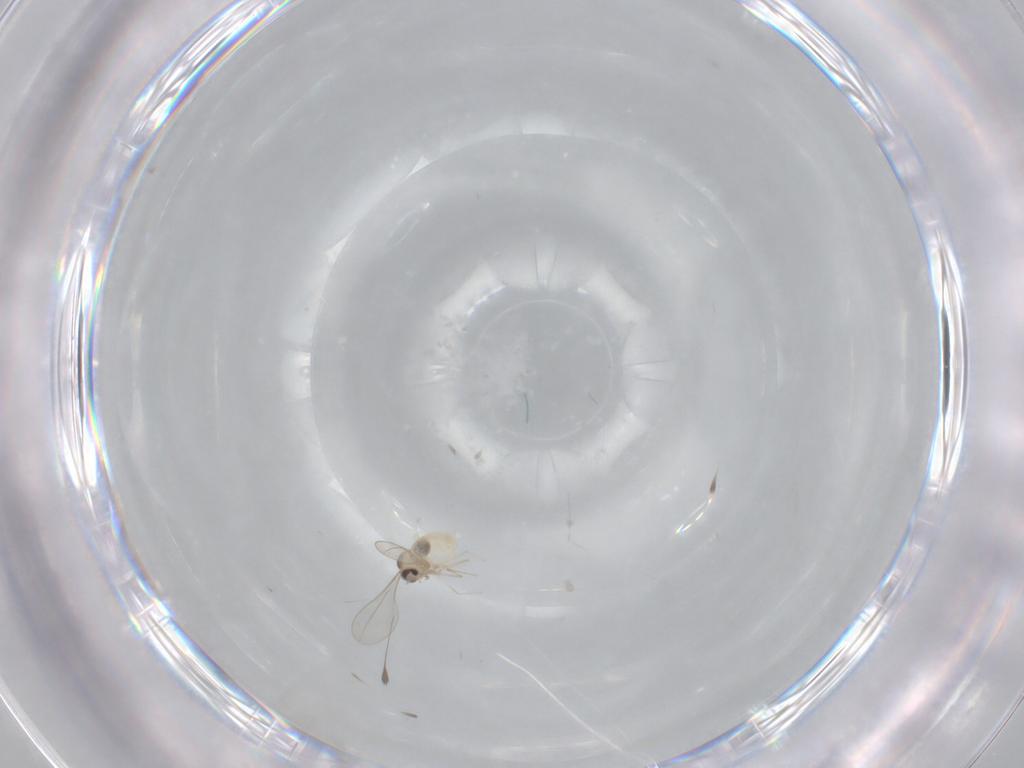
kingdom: Animalia
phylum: Arthropoda
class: Insecta
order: Diptera
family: Cecidomyiidae
